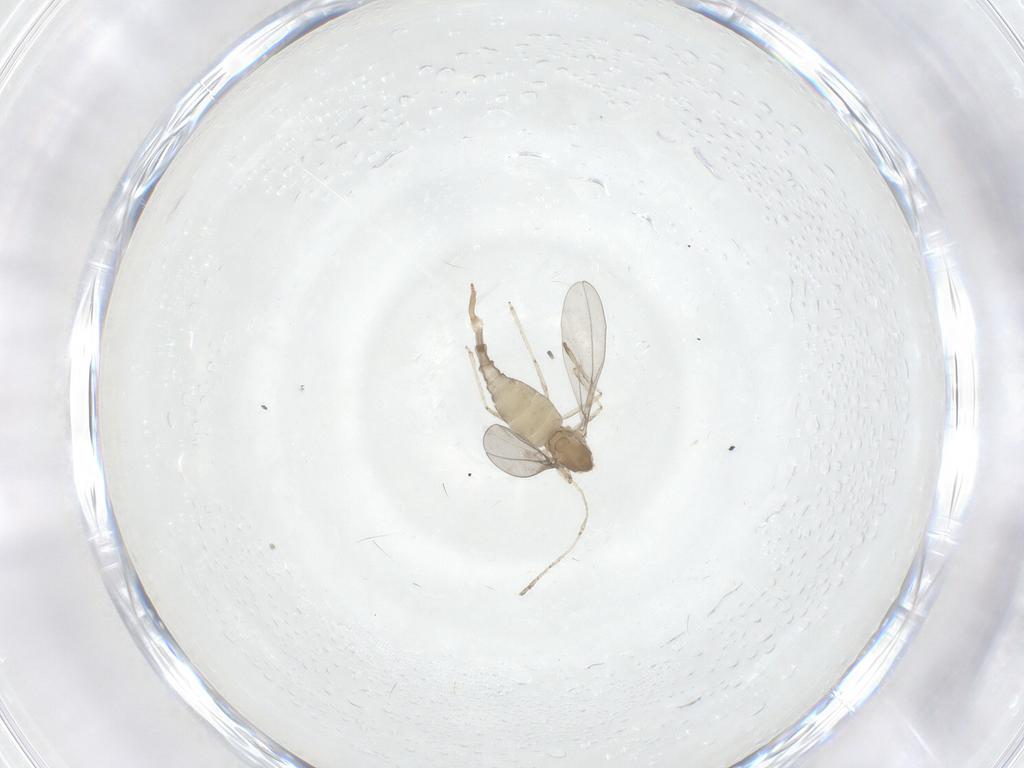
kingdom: Animalia
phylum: Arthropoda
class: Insecta
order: Diptera
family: Cecidomyiidae
